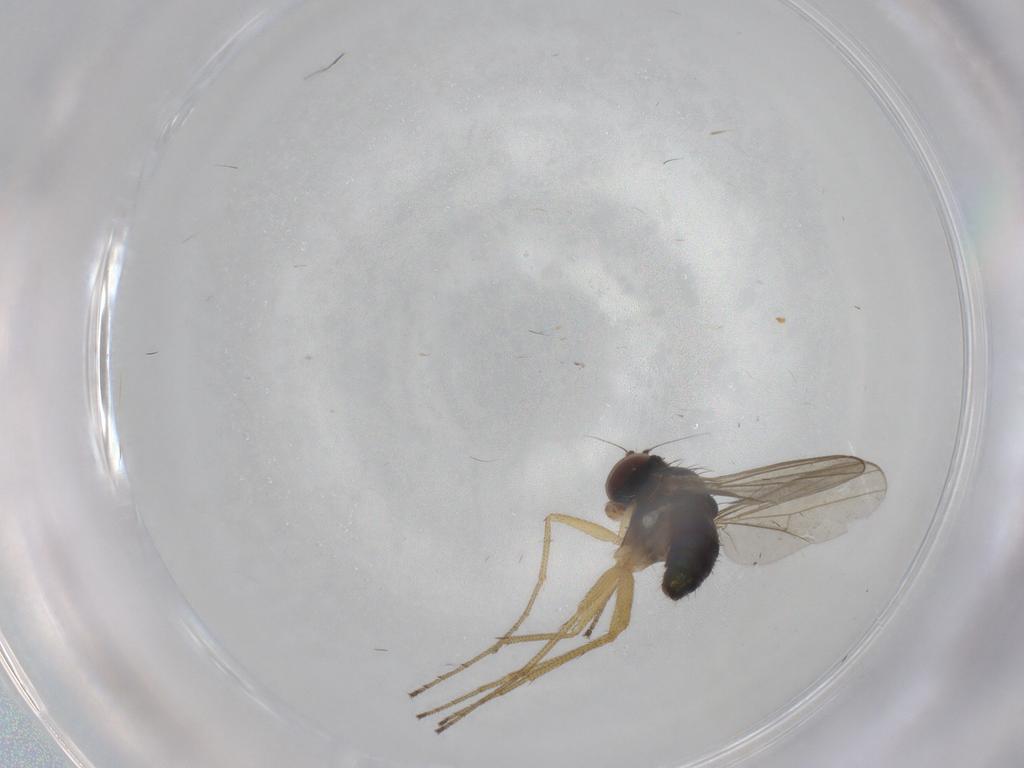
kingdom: Animalia
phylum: Arthropoda
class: Insecta
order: Diptera
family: Dolichopodidae
